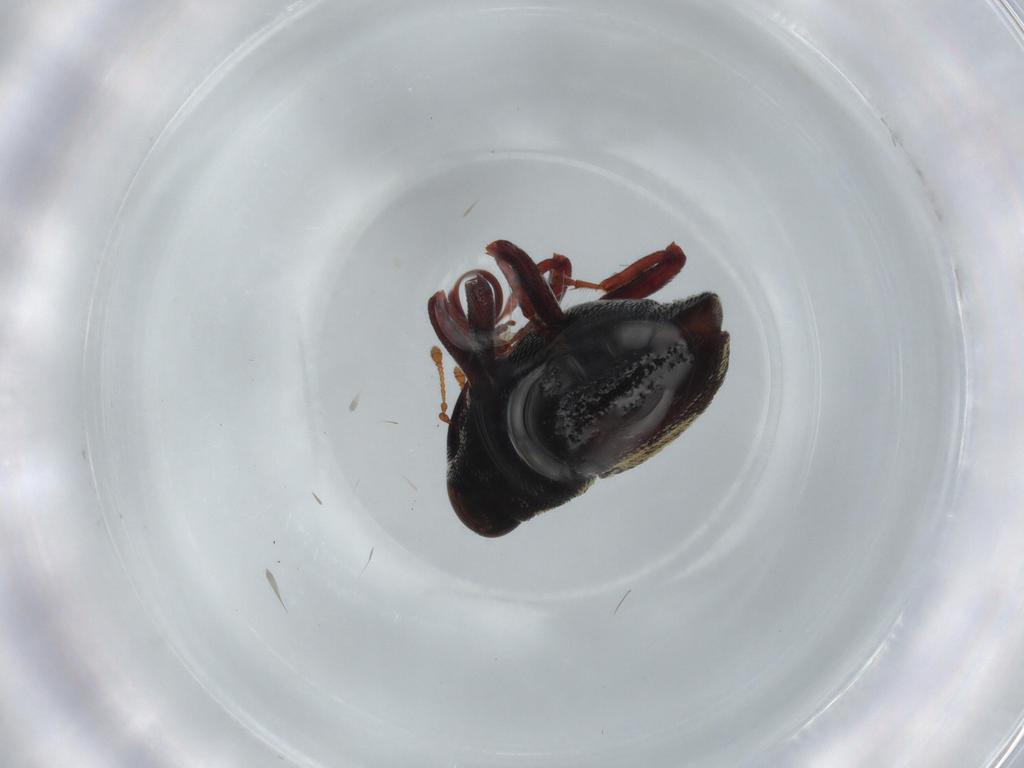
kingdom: Animalia
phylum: Arthropoda
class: Insecta
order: Coleoptera
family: Curculionidae
